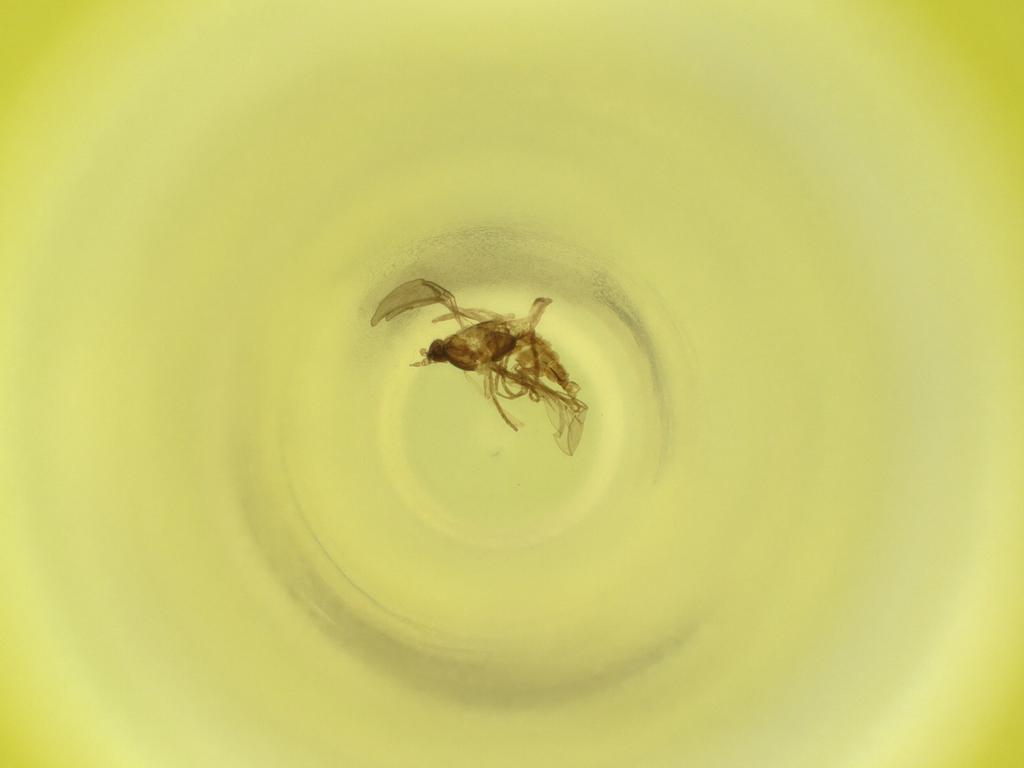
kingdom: Animalia
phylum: Arthropoda
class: Insecta
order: Diptera
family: Cecidomyiidae
